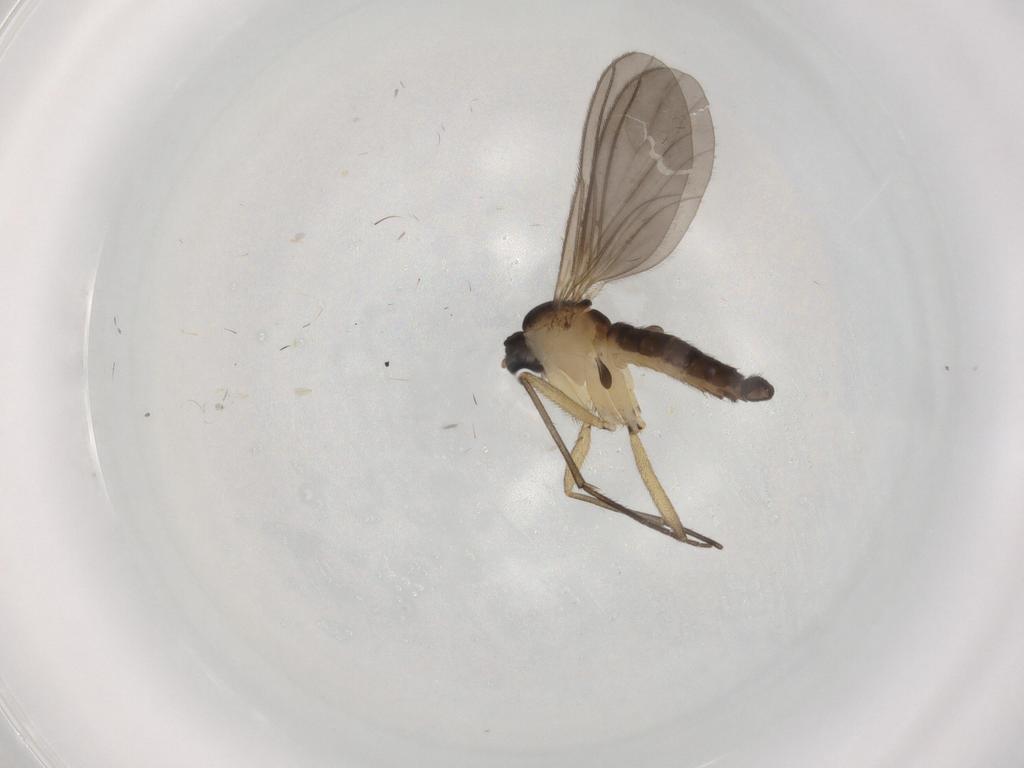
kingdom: Animalia
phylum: Arthropoda
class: Insecta
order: Diptera
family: Sciaridae
